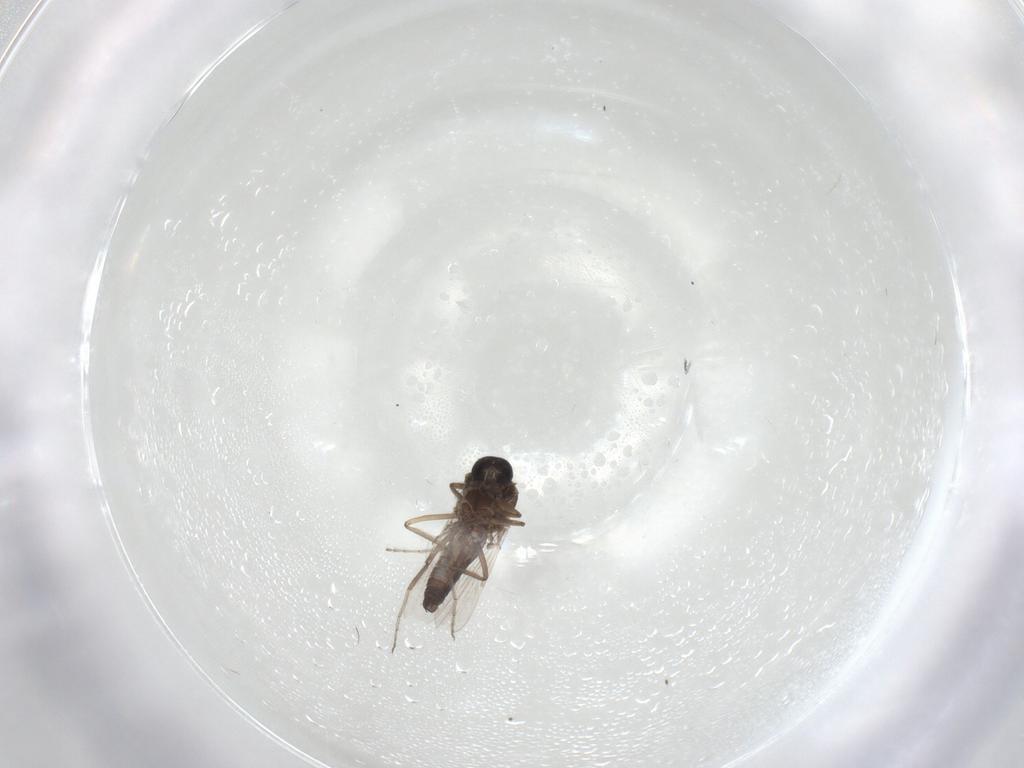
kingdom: Animalia
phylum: Arthropoda
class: Insecta
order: Diptera
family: Ceratopogonidae
